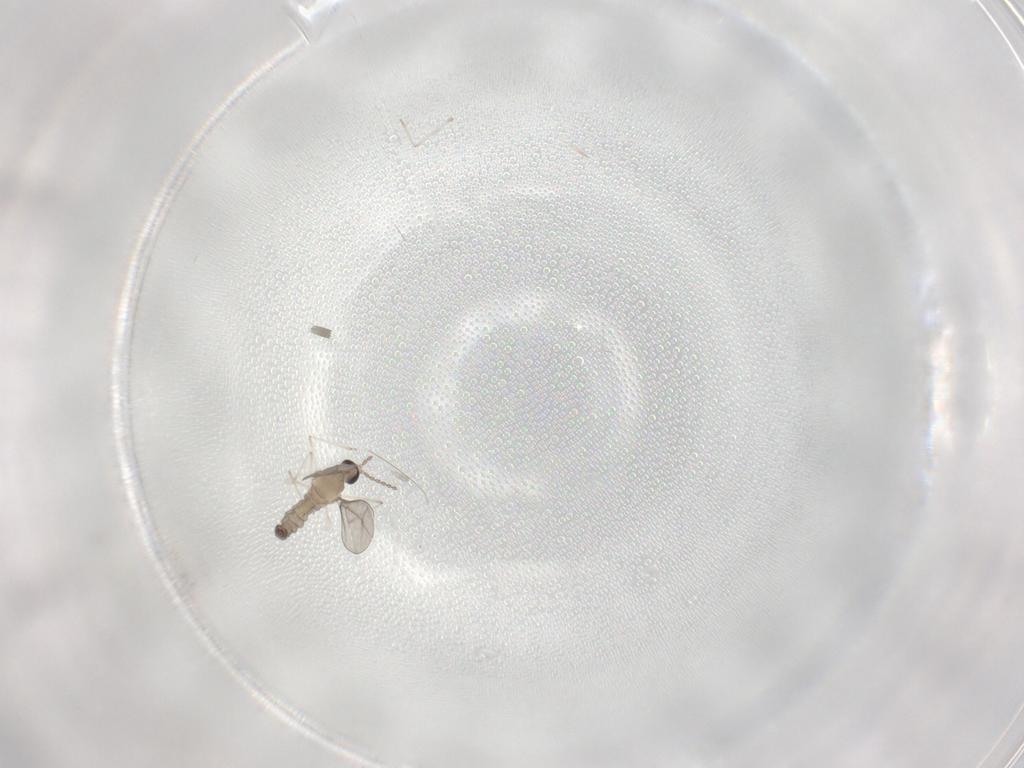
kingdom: Animalia
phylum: Arthropoda
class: Insecta
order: Diptera
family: Cecidomyiidae
